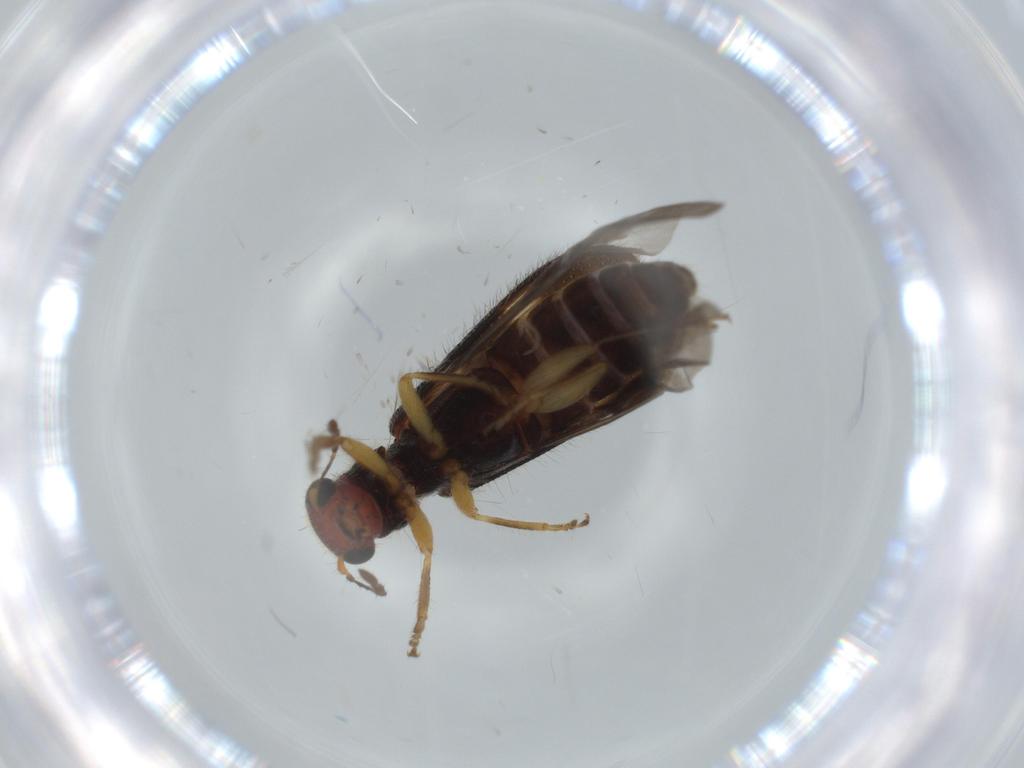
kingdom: Animalia
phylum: Arthropoda
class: Insecta
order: Coleoptera
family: Cleridae
